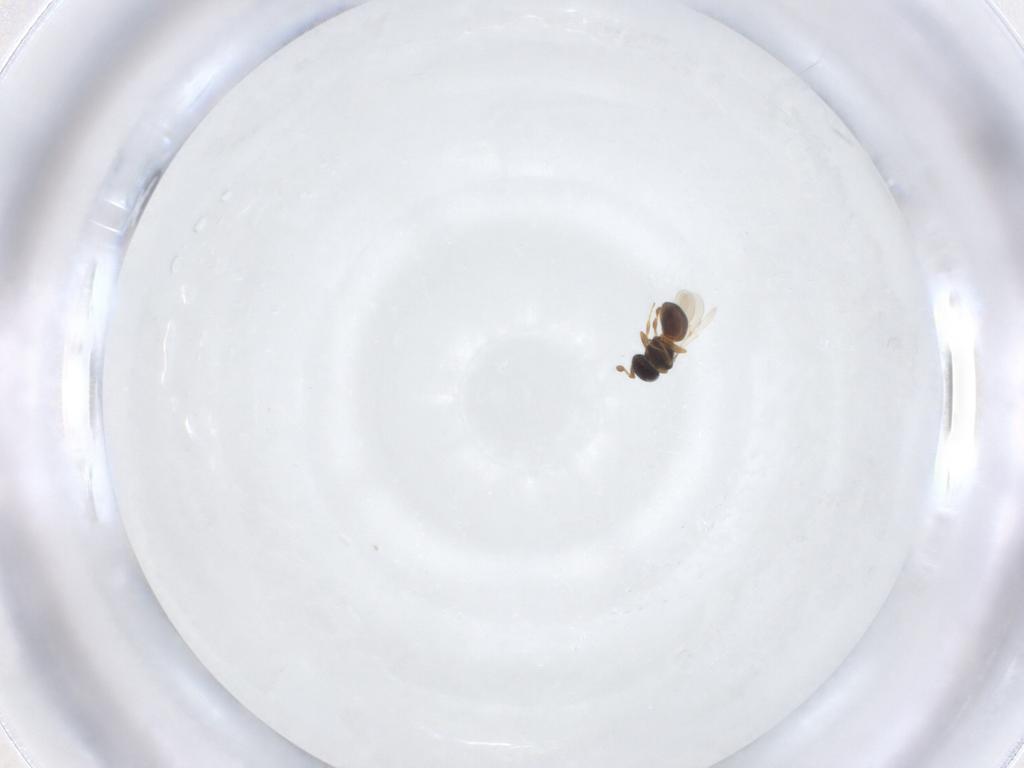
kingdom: Animalia
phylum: Arthropoda
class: Insecta
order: Hymenoptera
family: Scelionidae
